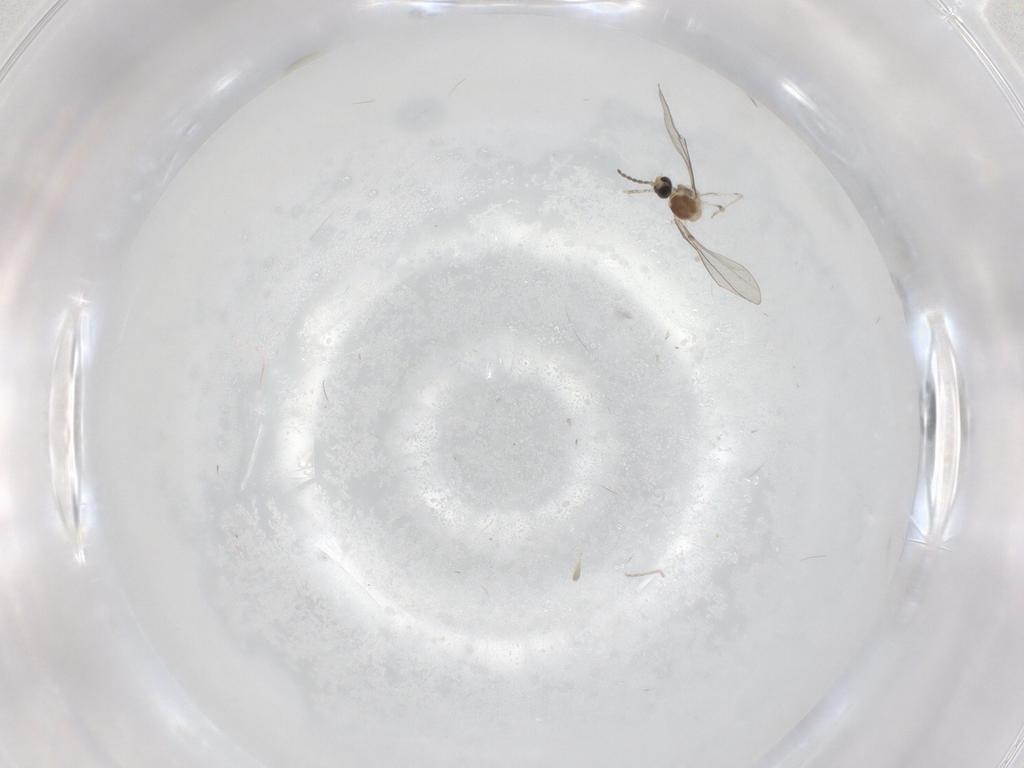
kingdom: Animalia
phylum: Arthropoda
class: Insecta
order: Diptera
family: Cecidomyiidae
